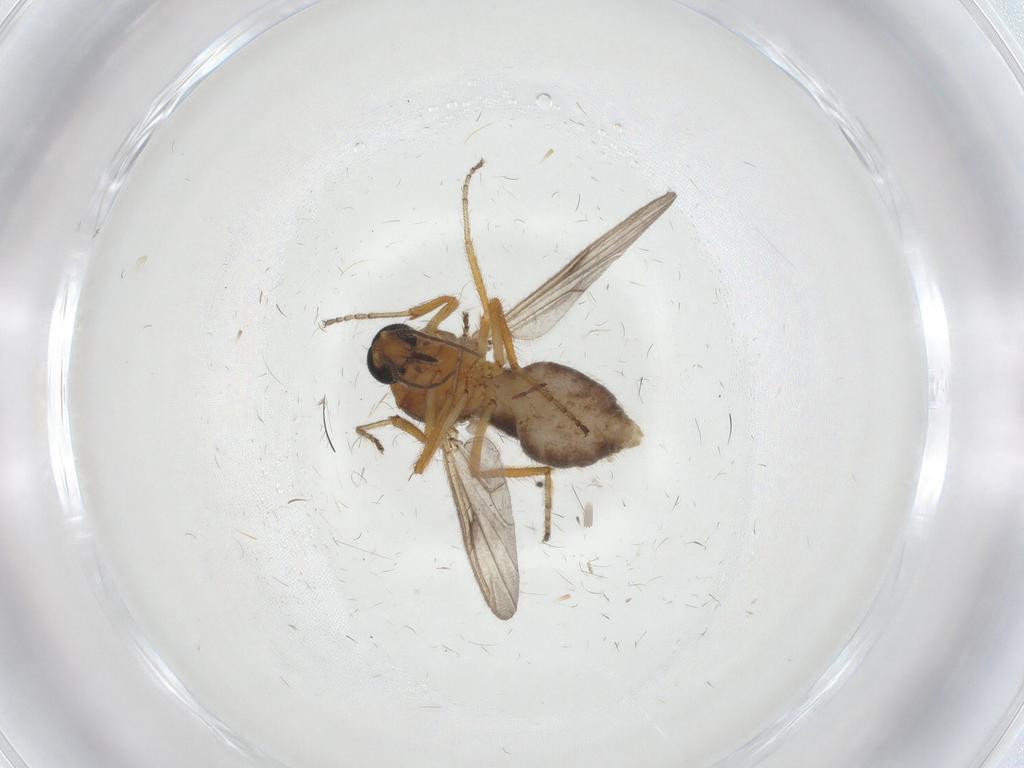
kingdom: Animalia
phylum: Arthropoda
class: Insecta
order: Diptera
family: Ceratopogonidae
